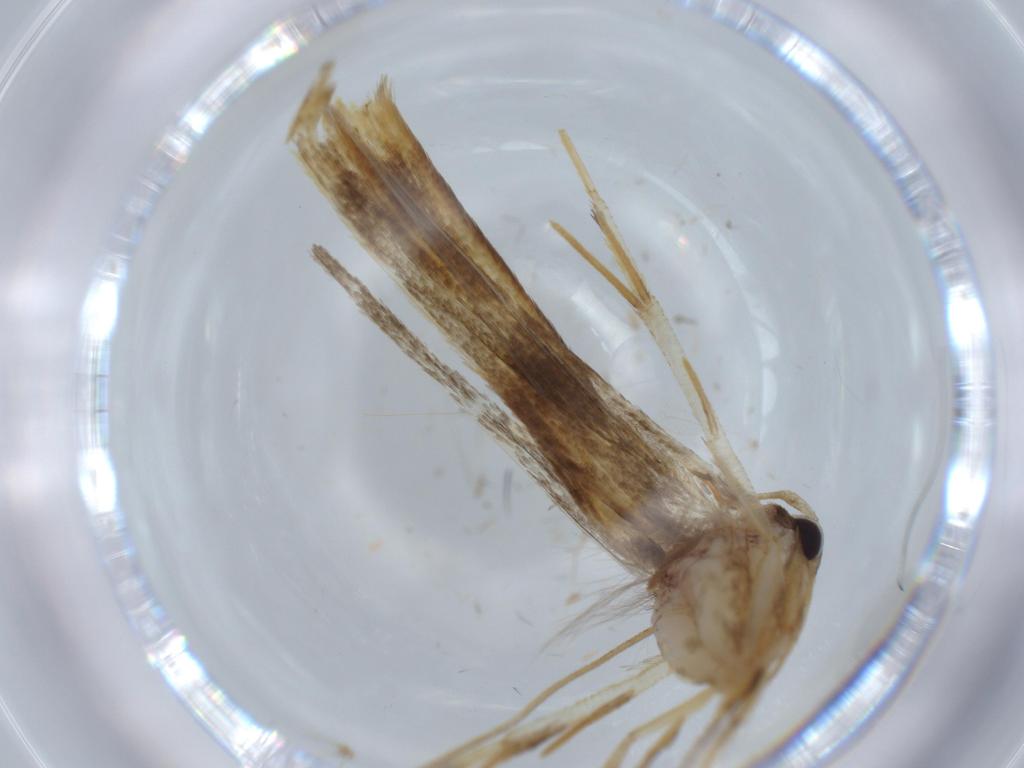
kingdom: Animalia
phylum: Arthropoda
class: Insecta
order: Lepidoptera
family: Stathmopodidae
